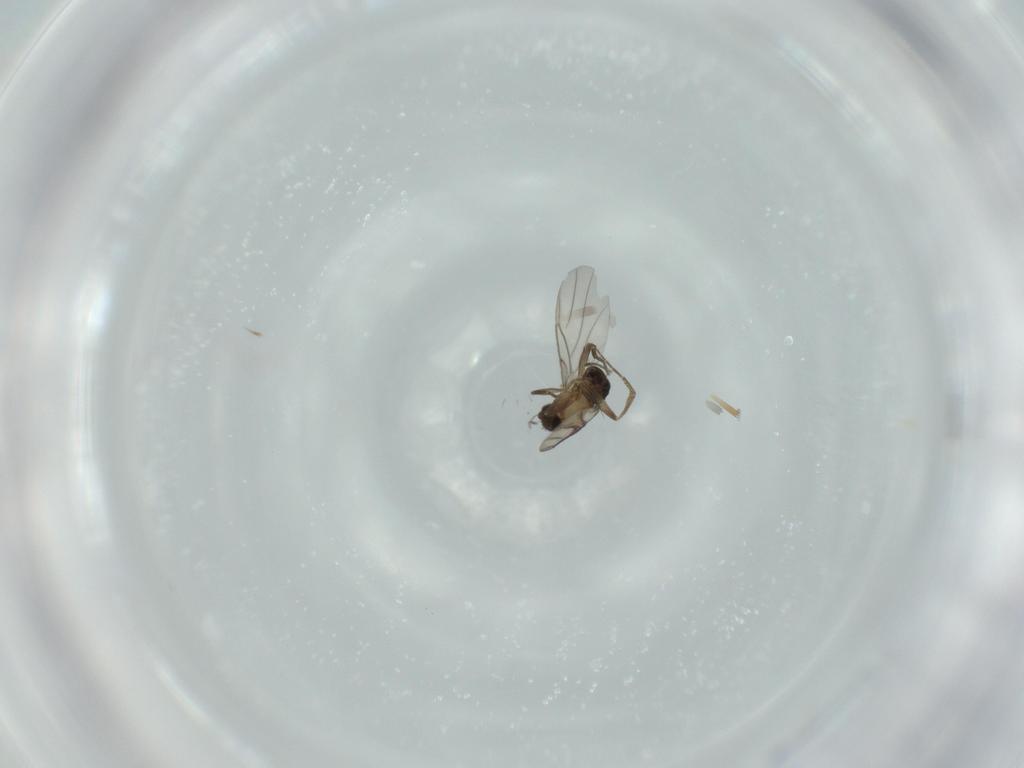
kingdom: Animalia
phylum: Arthropoda
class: Insecta
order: Diptera
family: Phoridae
